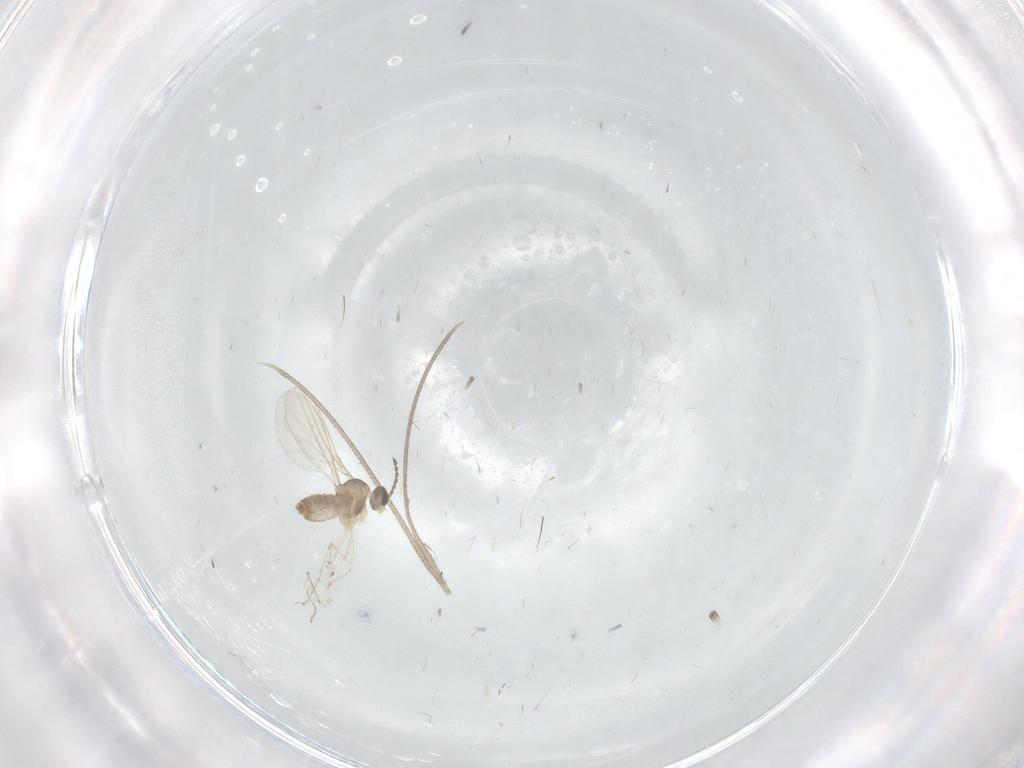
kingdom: Animalia
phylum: Arthropoda
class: Insecta
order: Diptera
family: Cecidomyiidae
